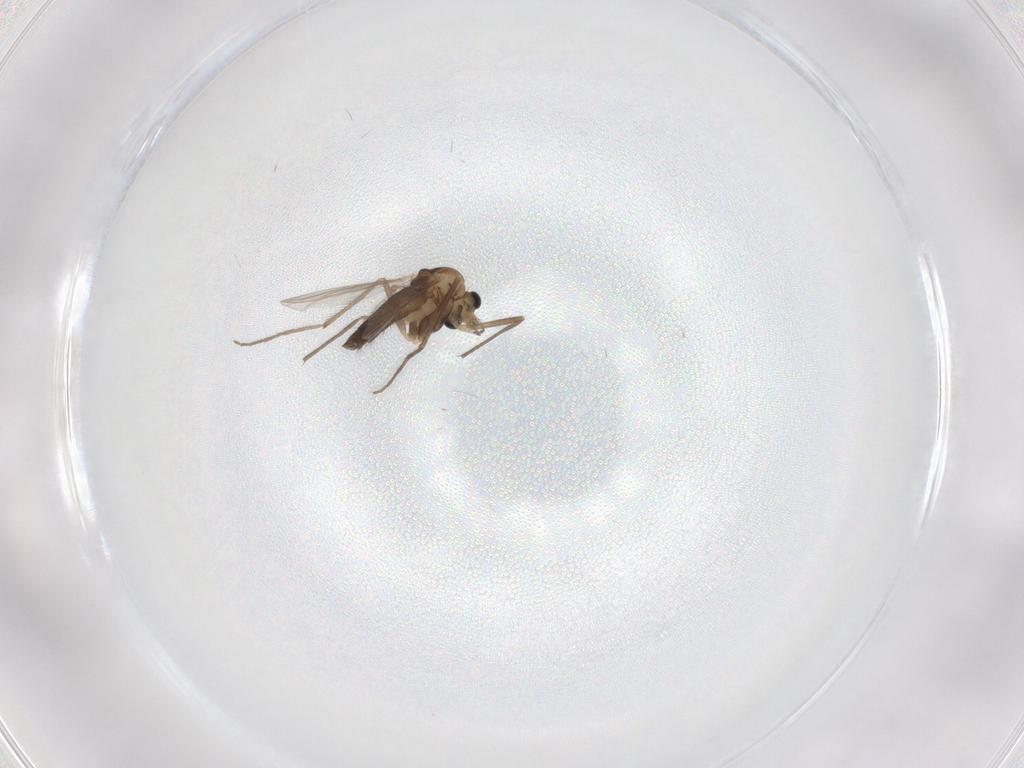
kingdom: Animalia
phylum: Arthropoda
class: Insecta
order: Diptera
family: Chironomidae
